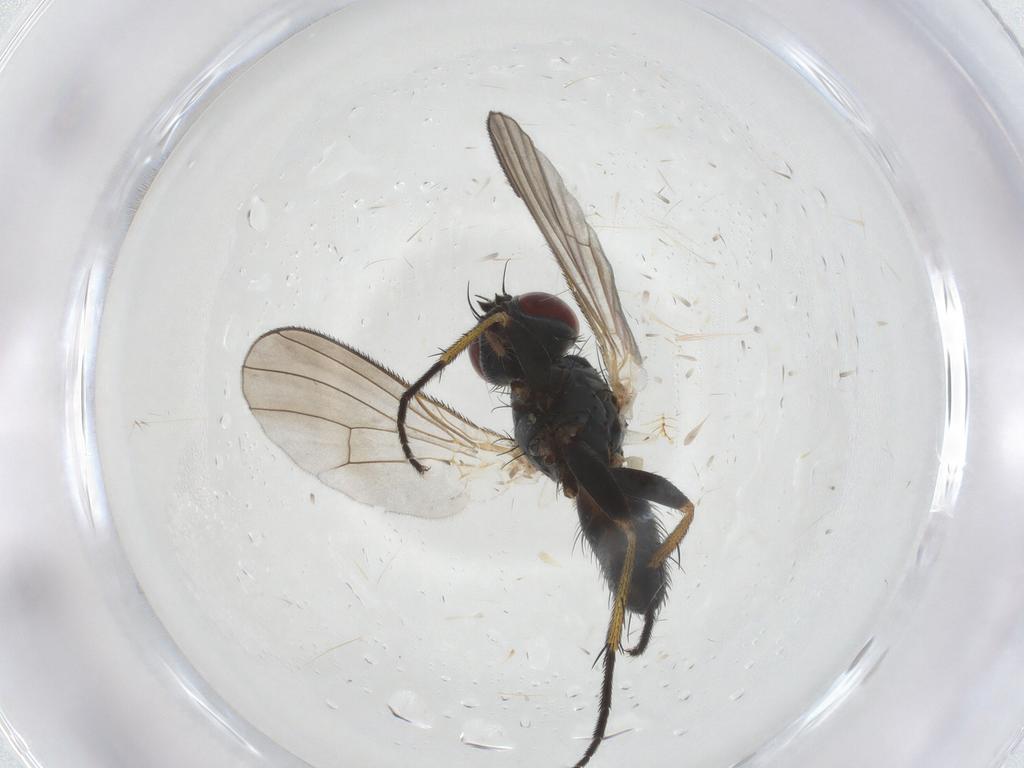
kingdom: Animalia
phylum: Arthropoda
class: Insecta
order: Diptera
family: Muscidae
